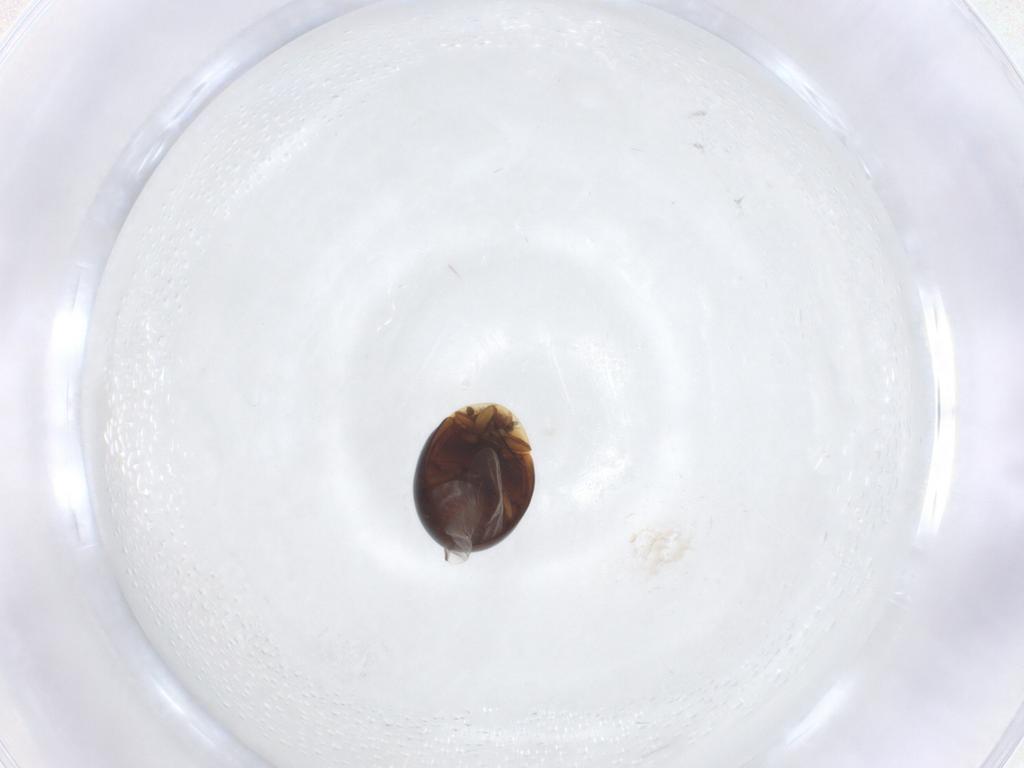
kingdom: Animalia
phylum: Arthropoda
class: Insecta
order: Coleoptera
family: Corylophidae
